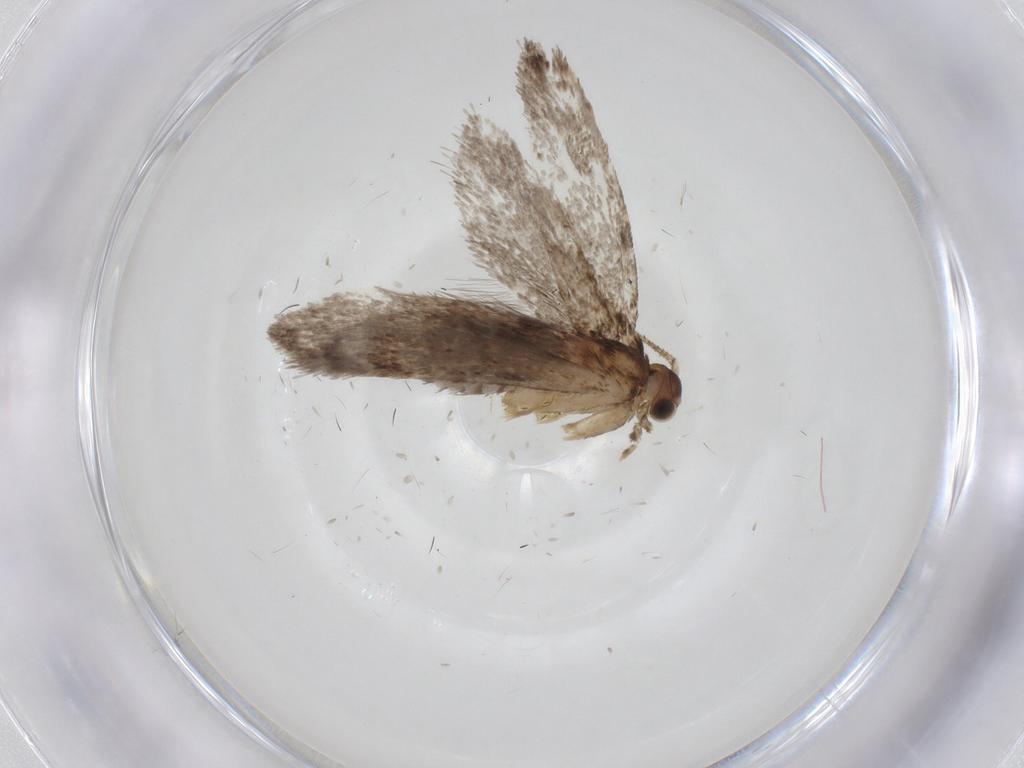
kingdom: Animalia
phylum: Arthropoda
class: Insecta
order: Lepidoptera
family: Dryadaulidae
